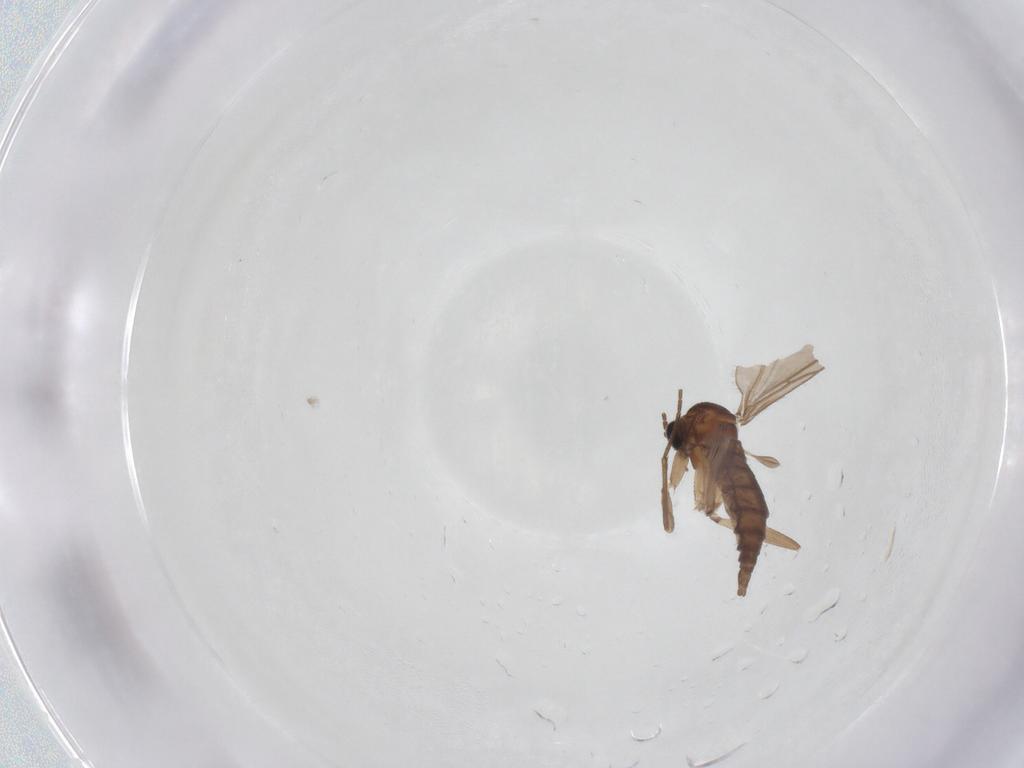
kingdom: Animalia
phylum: Arthropoda
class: Insecta
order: Diptera
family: Sciaridae
